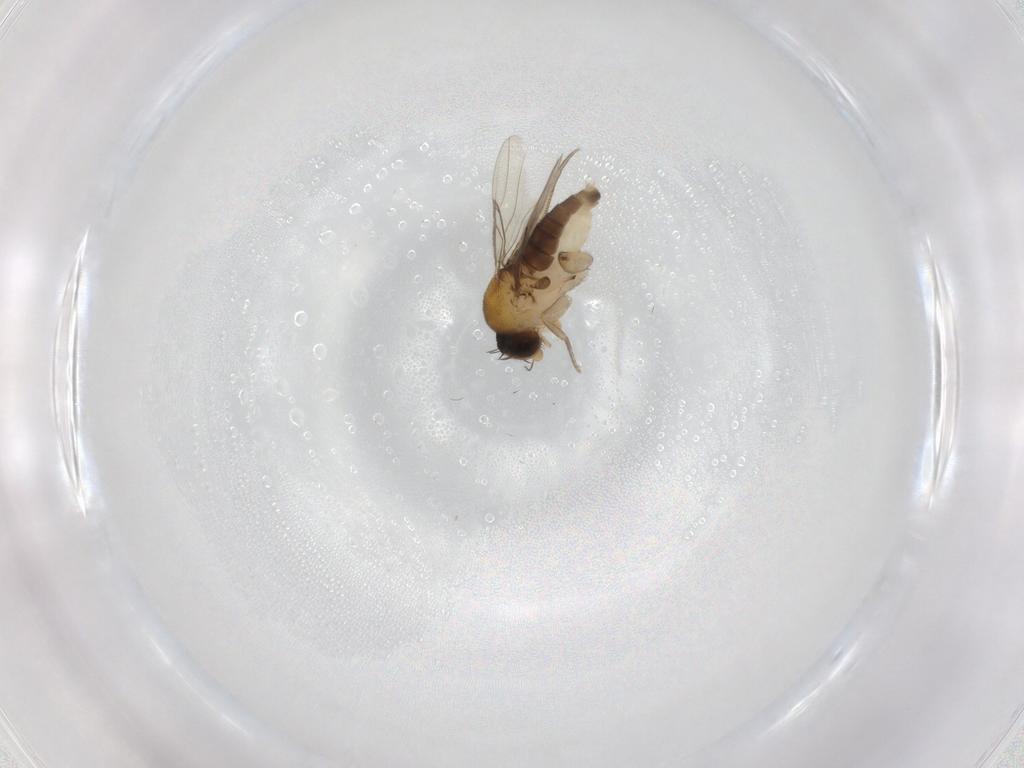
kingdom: Animalia
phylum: Arthropoda
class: Insecta
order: Diptera
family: Phoridae
